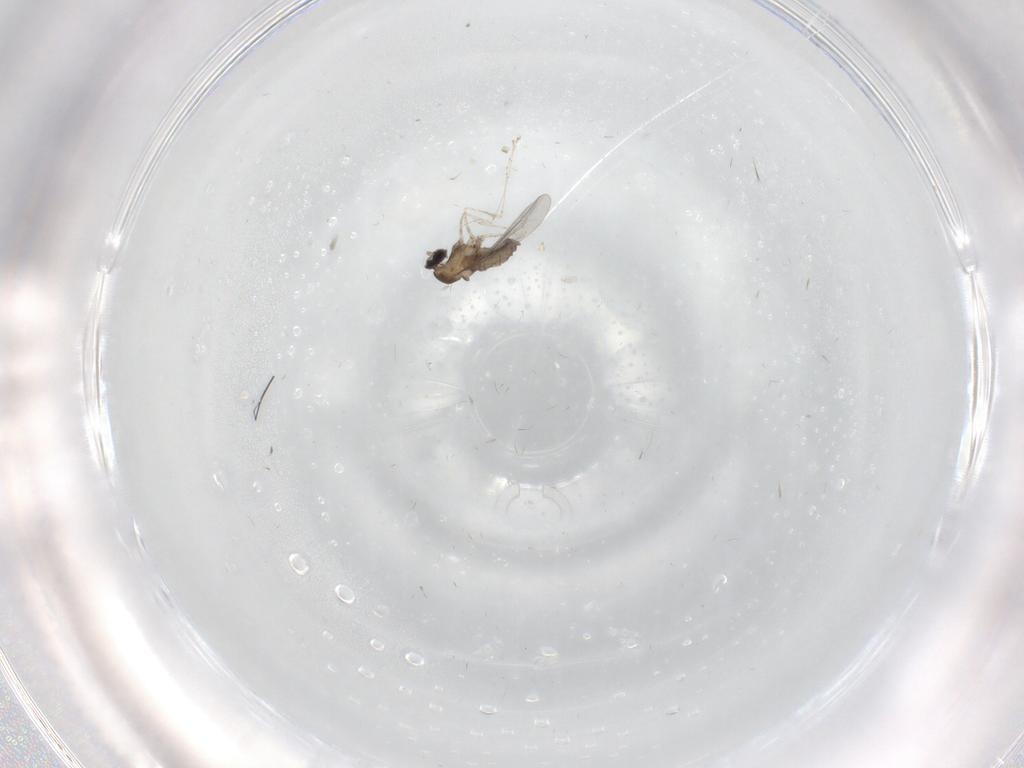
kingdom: Animalia
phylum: Arthropoda
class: Insecta
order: Diptera
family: Cecidomyiidae
